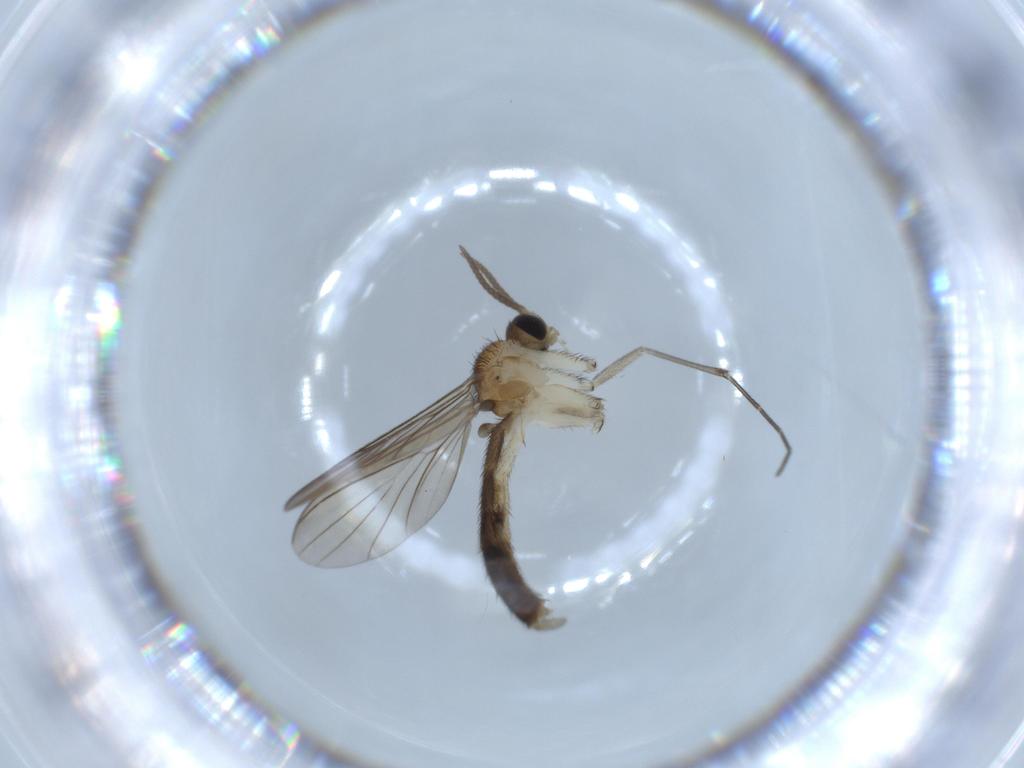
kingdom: Animalia
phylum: Arthropoda
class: Insecta
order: Diptera
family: Keroplatidae
